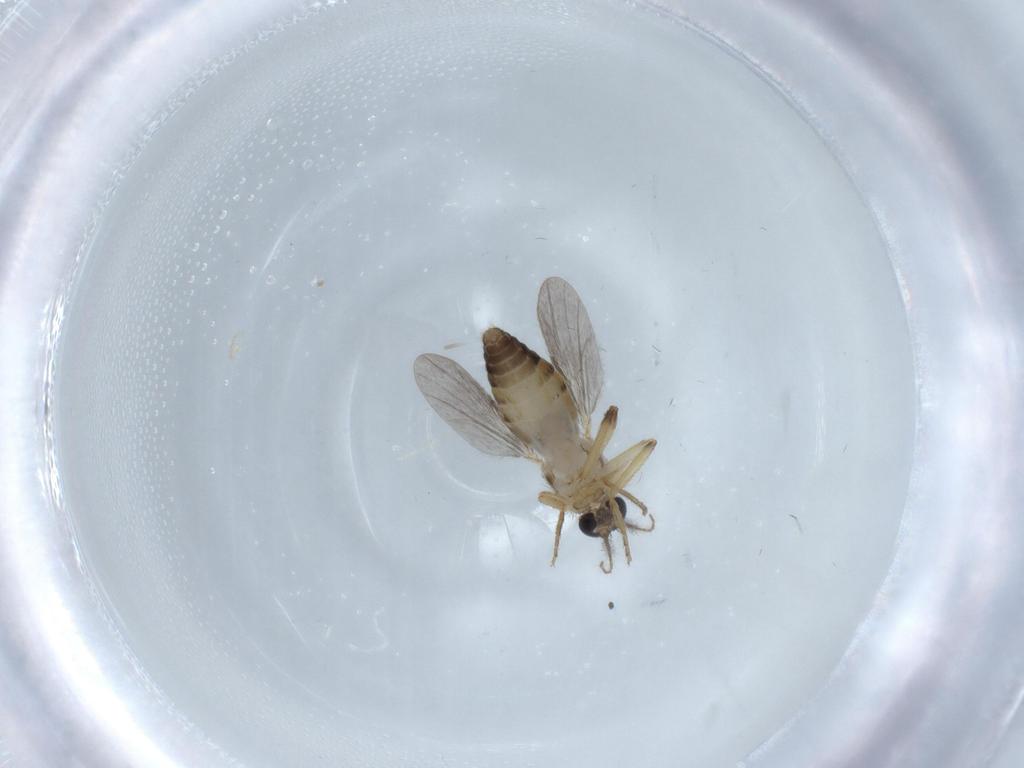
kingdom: Animalia
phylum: Arthropoda
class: Insecta
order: Diptera
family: Ceratopogonidae
